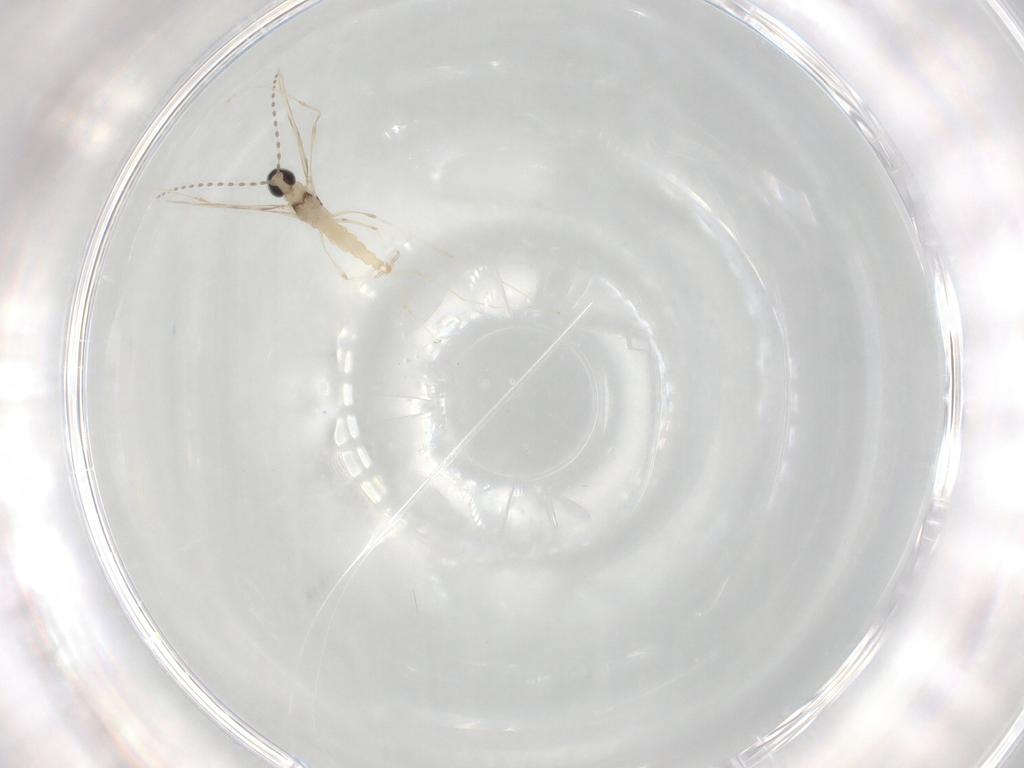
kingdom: Animalia
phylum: Arthropoda
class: Insecta
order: Diptera
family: Cecidomyiidae
